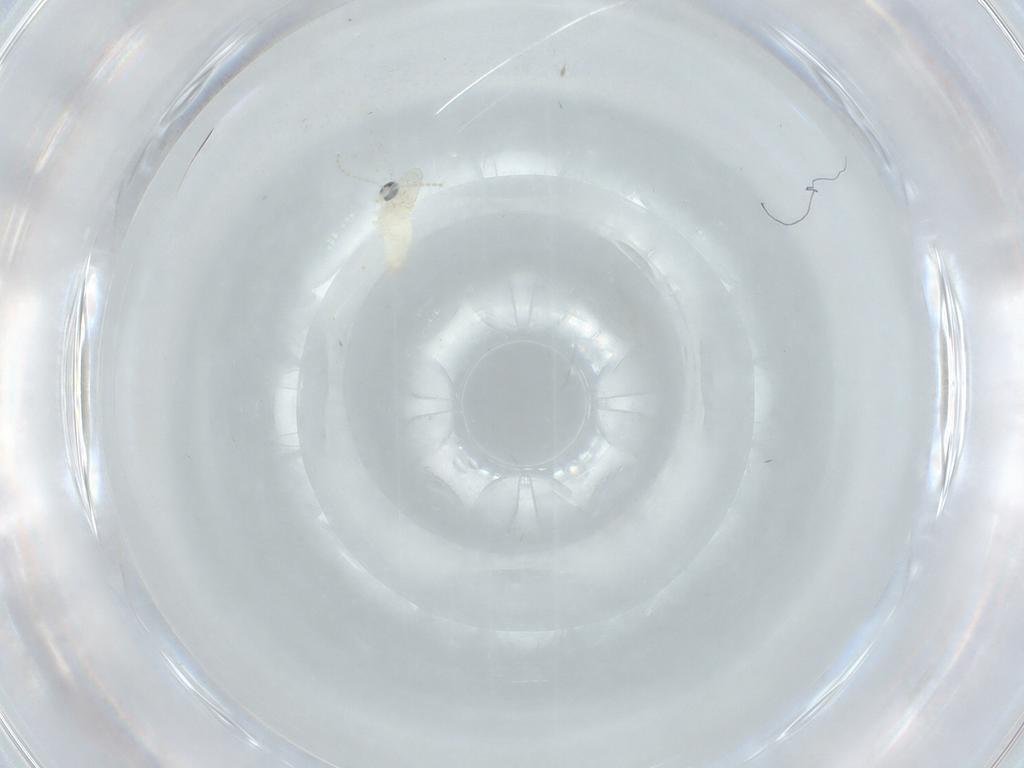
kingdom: Animalia
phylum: Arthropoda
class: Insecta
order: Diptera
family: Cecidomyiidae
